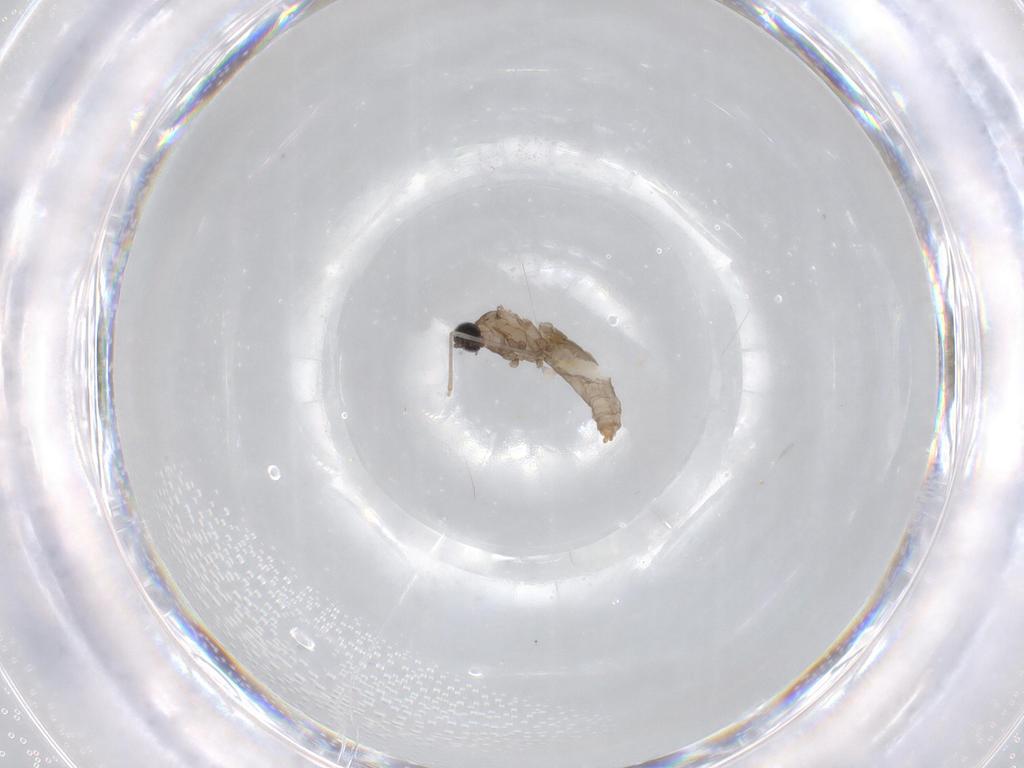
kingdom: Animalia
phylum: Arthropoda
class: Insecta
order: Diptera
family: Cecidomyiidae
